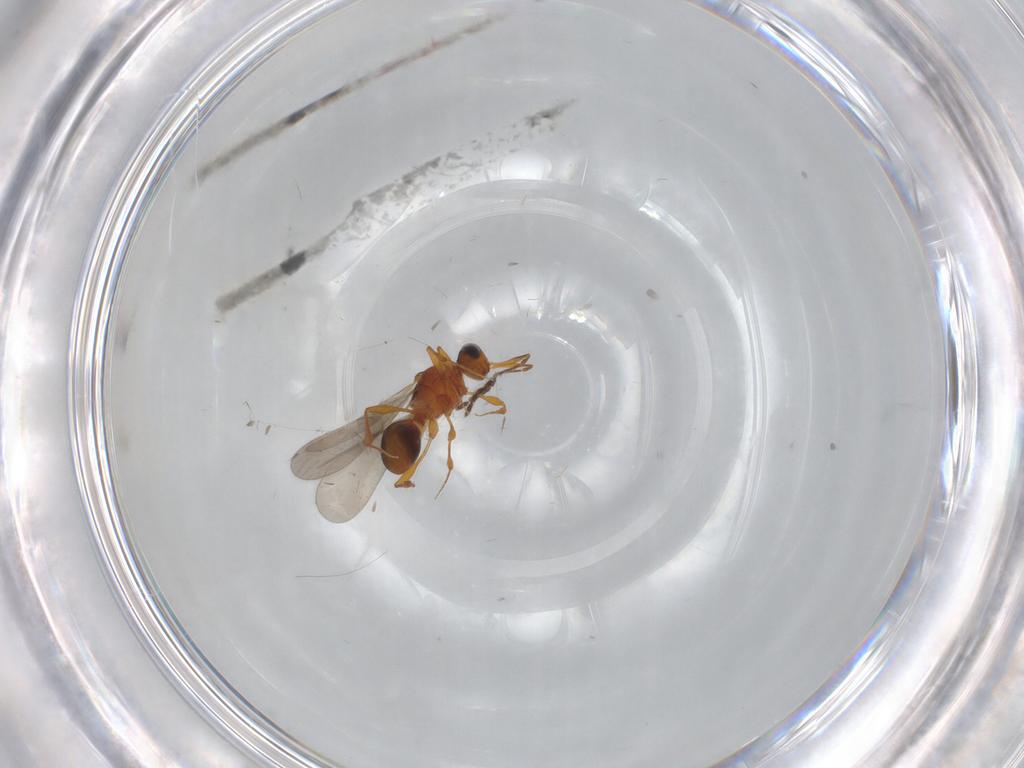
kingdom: Animalia
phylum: Arthropoda
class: Insecta
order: Hymenoptera
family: Platygastridae
